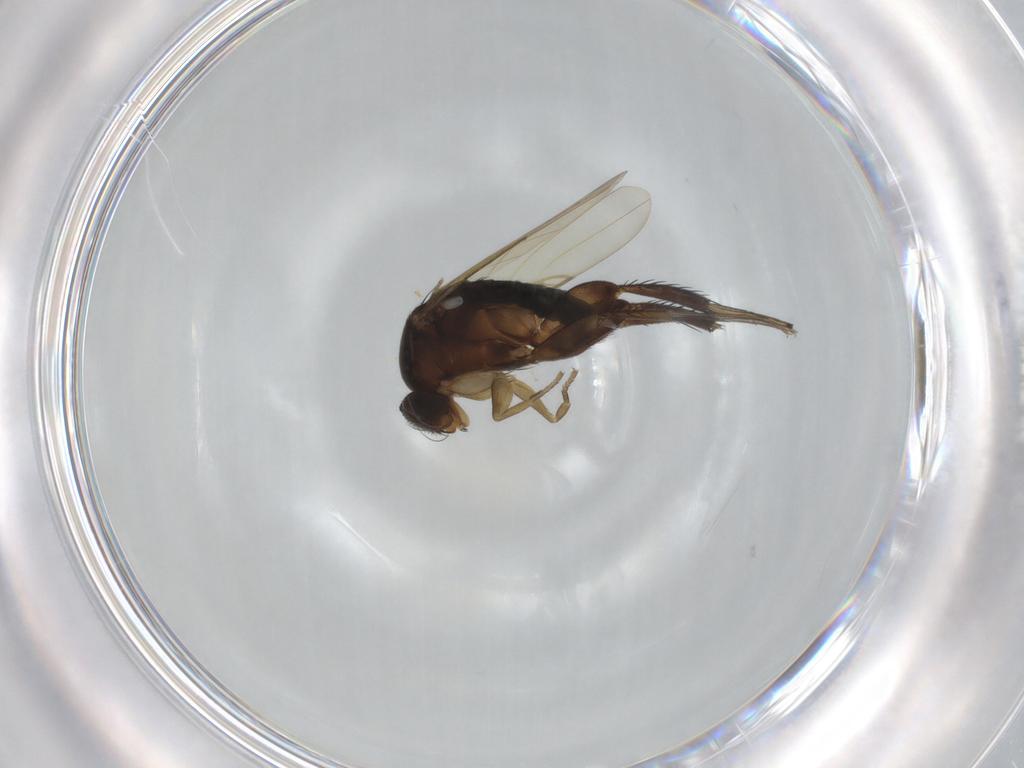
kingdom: Animalia
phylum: Arthropoda
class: Insecta
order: Diptera
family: Phoridae
